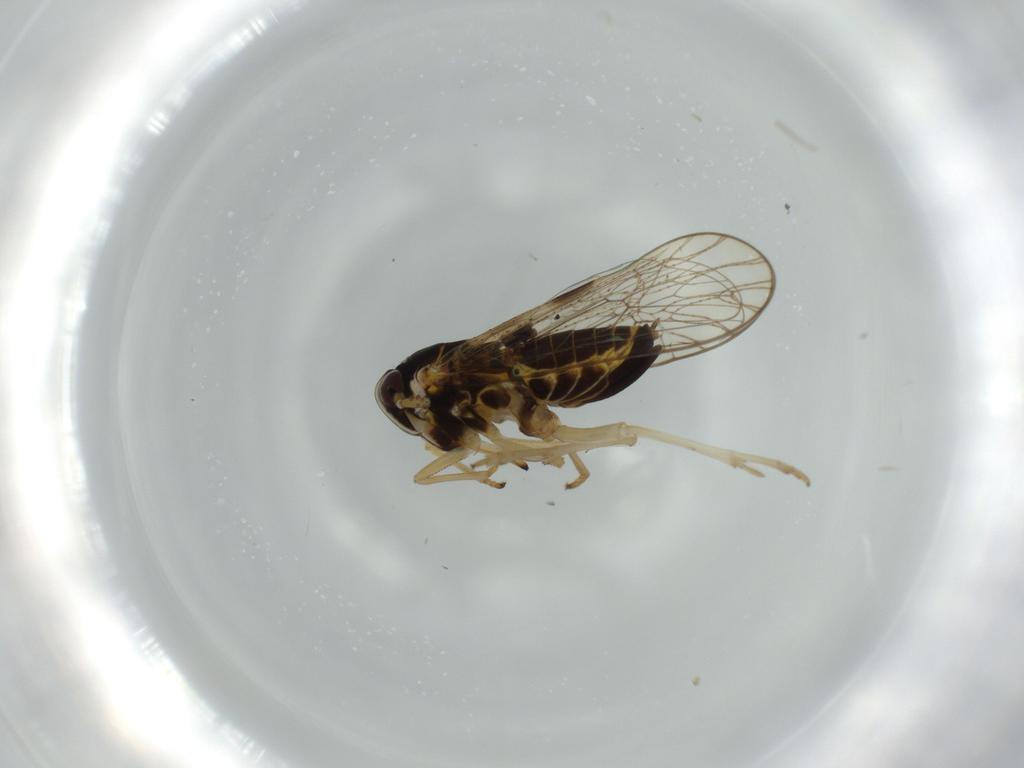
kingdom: Animalia
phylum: Arthropoda
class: Insecta
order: Hemiptera
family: Cicadellidae
